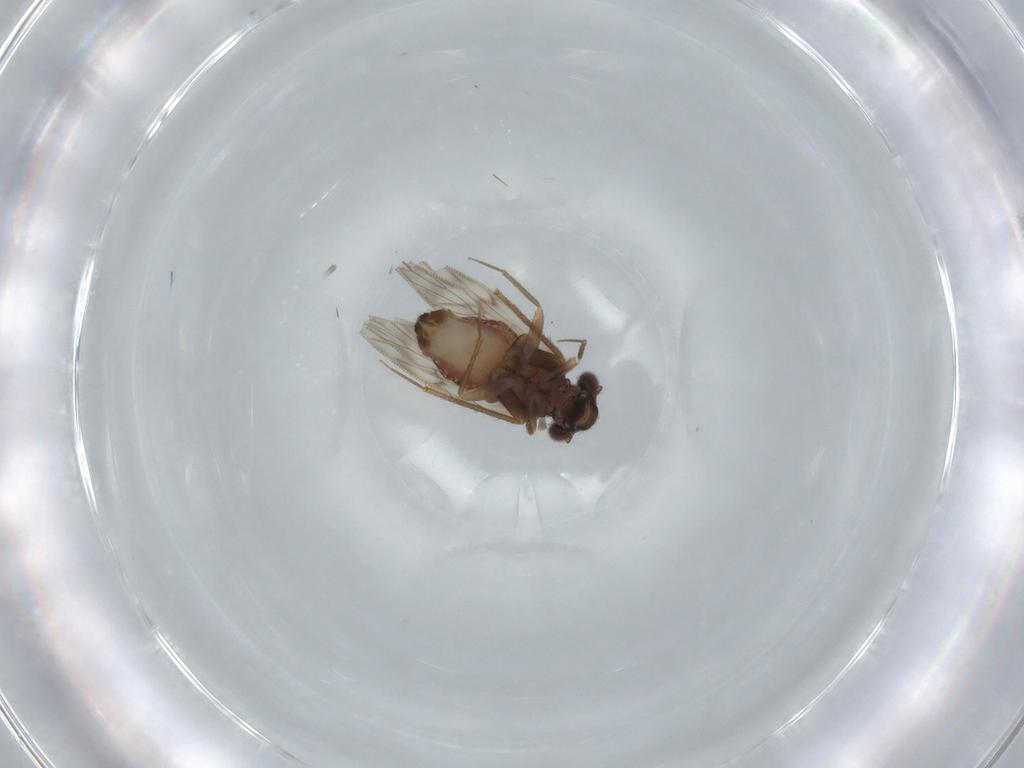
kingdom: Animalia
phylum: Arthropoda
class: Insecta
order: Psocodea
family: Lepidopsocidae
